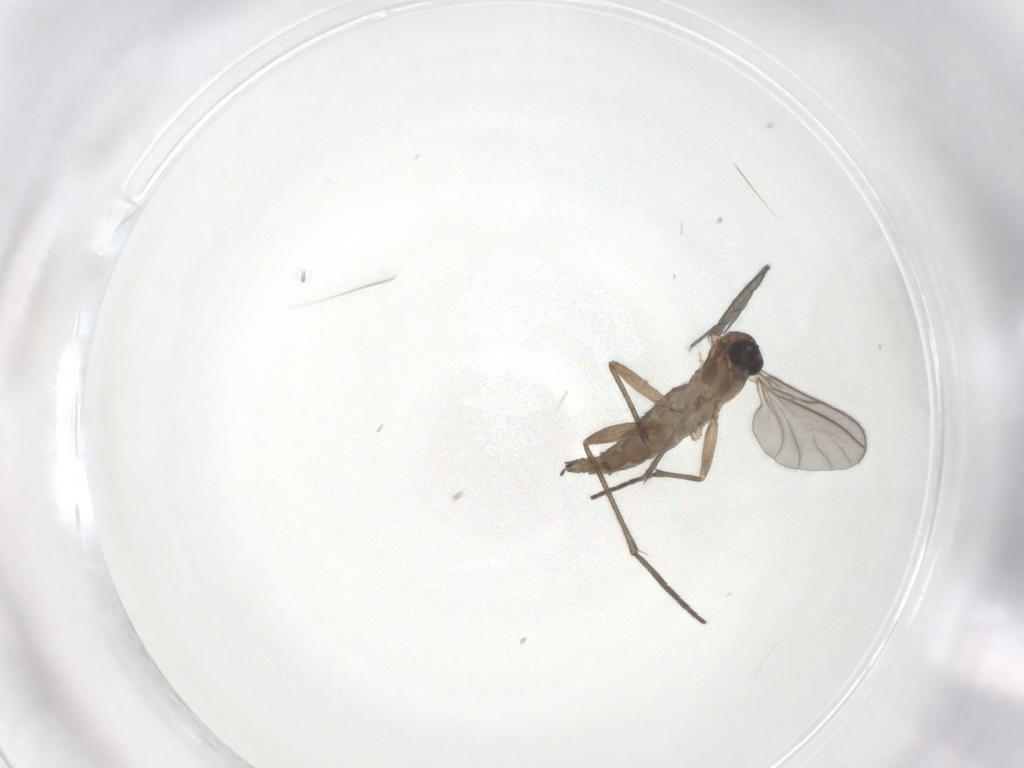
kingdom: Animalia
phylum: Arthropoda
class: Insecta
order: Diptera
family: Sciaridae
